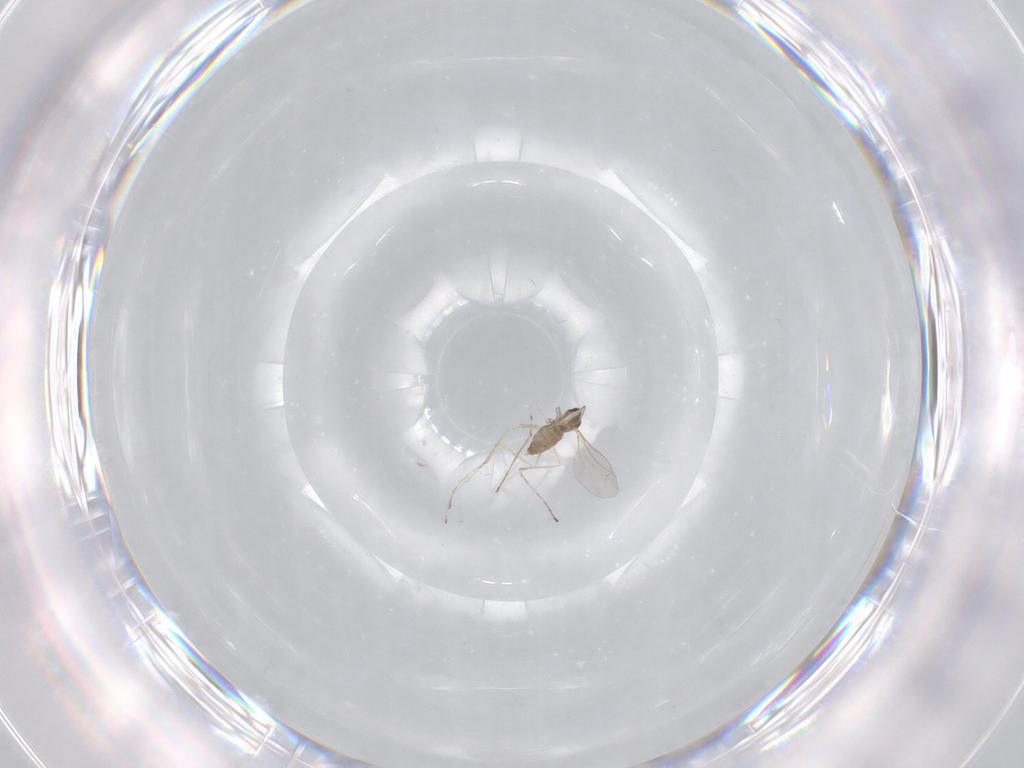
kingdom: Animalia
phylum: Arthropoda
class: Insecta
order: Diptera
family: Cecidomyiidae
